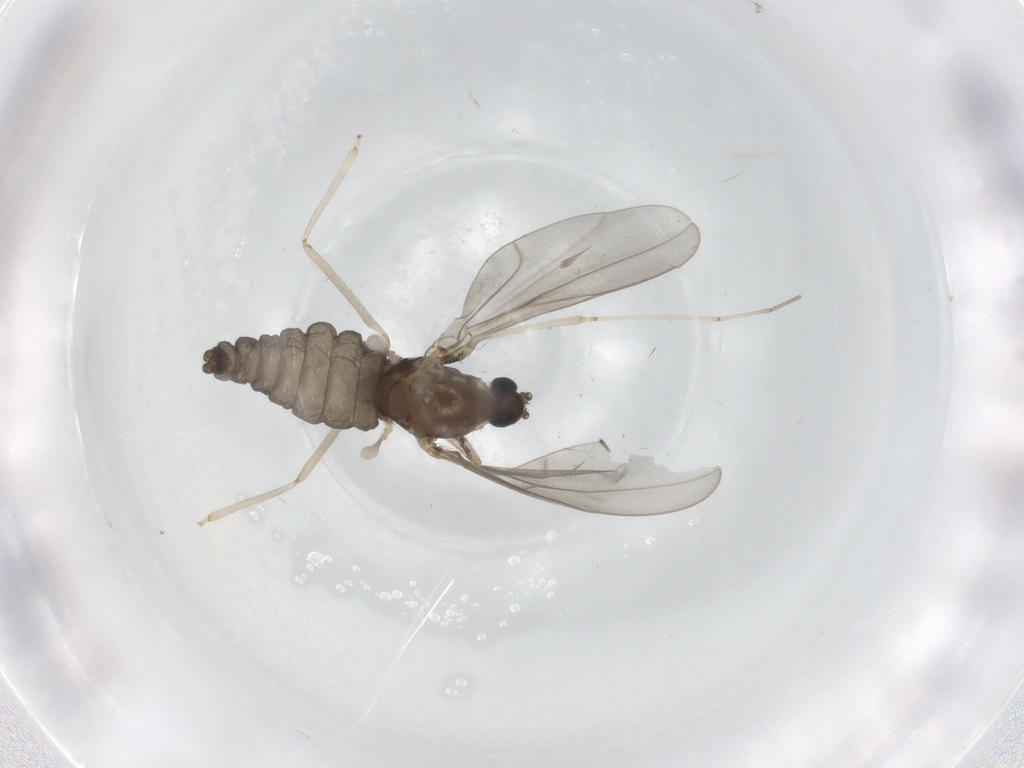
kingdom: Animalia
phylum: Arthropoda
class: Insecta
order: Diptera
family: Cecidomyiidae
